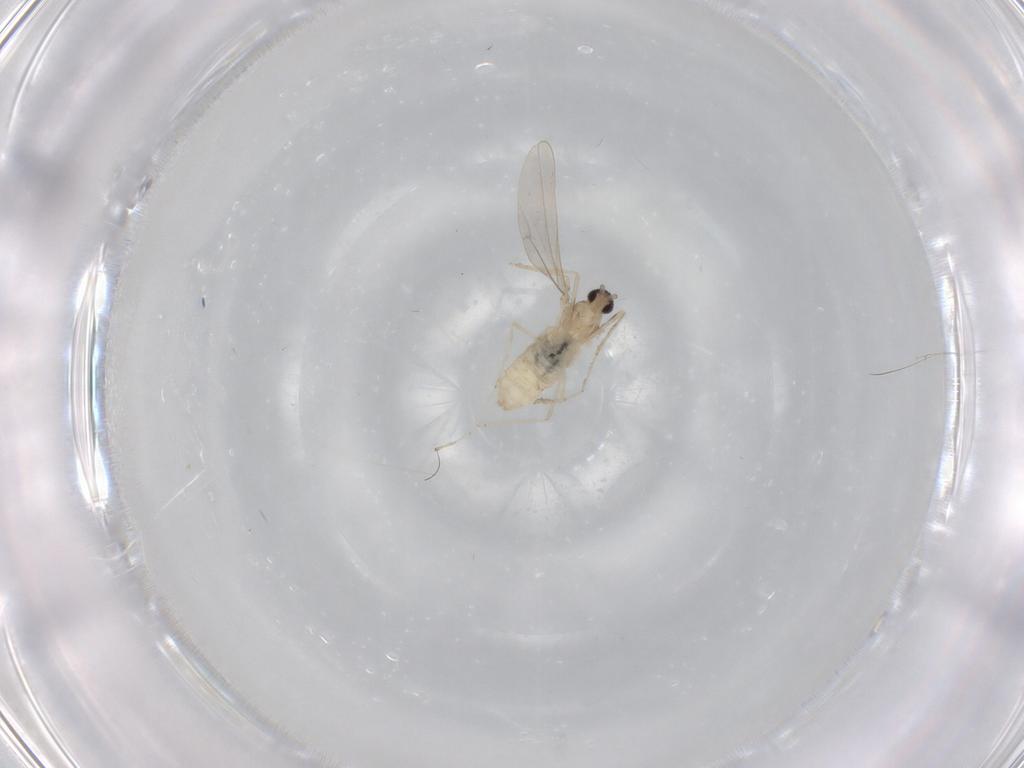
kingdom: Animalia
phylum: Arthropoda
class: Insecta
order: Diptera
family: Cecidomyiidae
